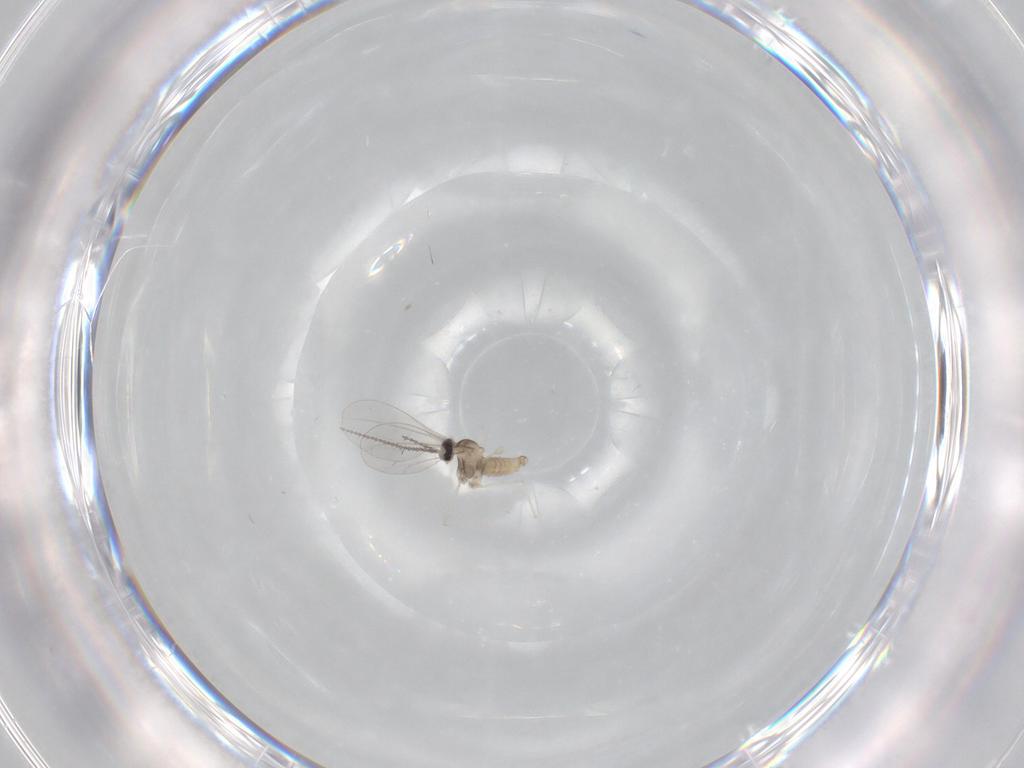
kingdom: Animalia
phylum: Arthropoda
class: Insecta
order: Diptera
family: Cecidomyiidae
